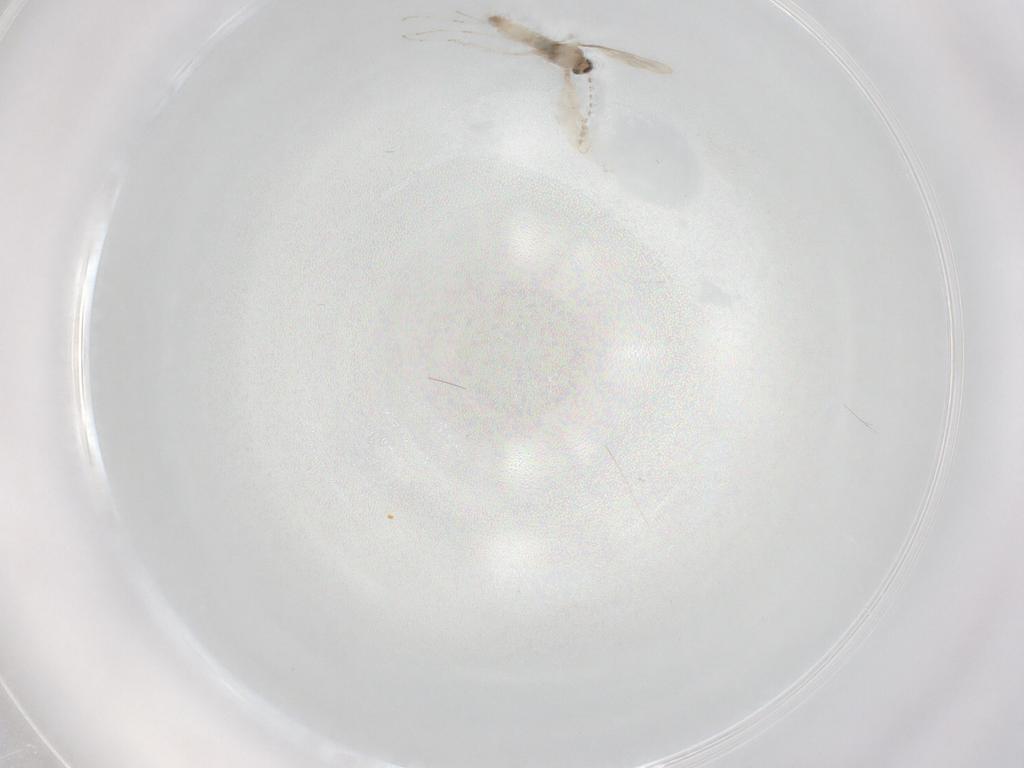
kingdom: Animalia
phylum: Arthropoda
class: Insecta
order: Diptera
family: Cecidomyiidae
